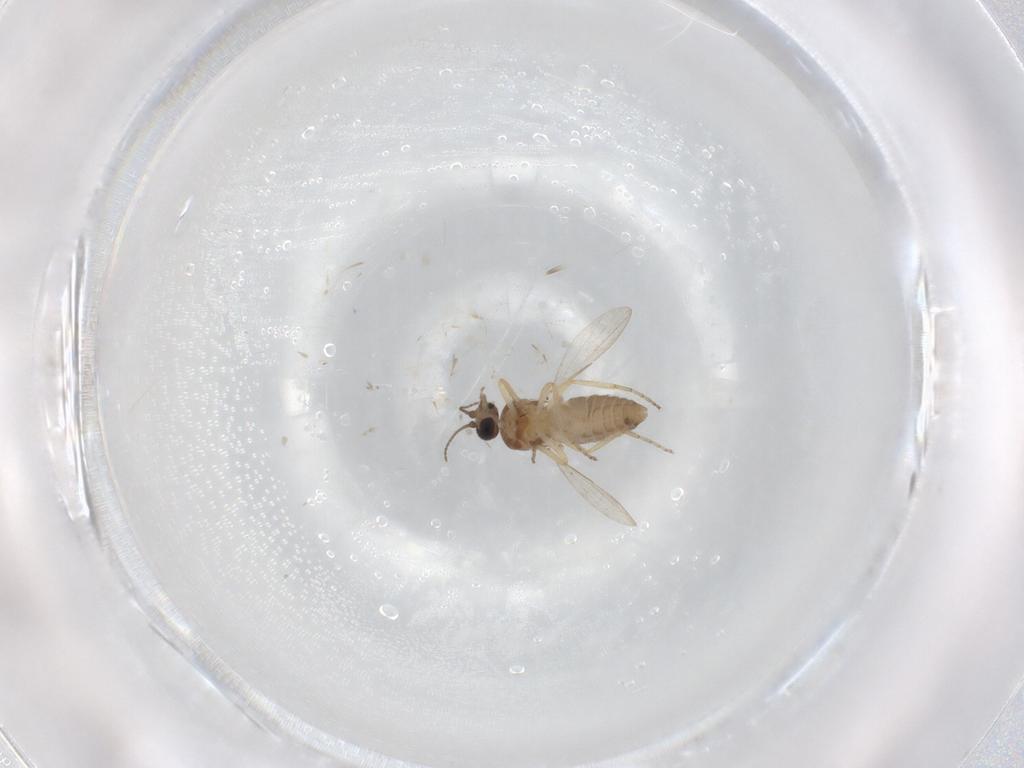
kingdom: Animalia
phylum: Arthropoda
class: Insecta
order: Diptera
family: Ceratopogonidae
